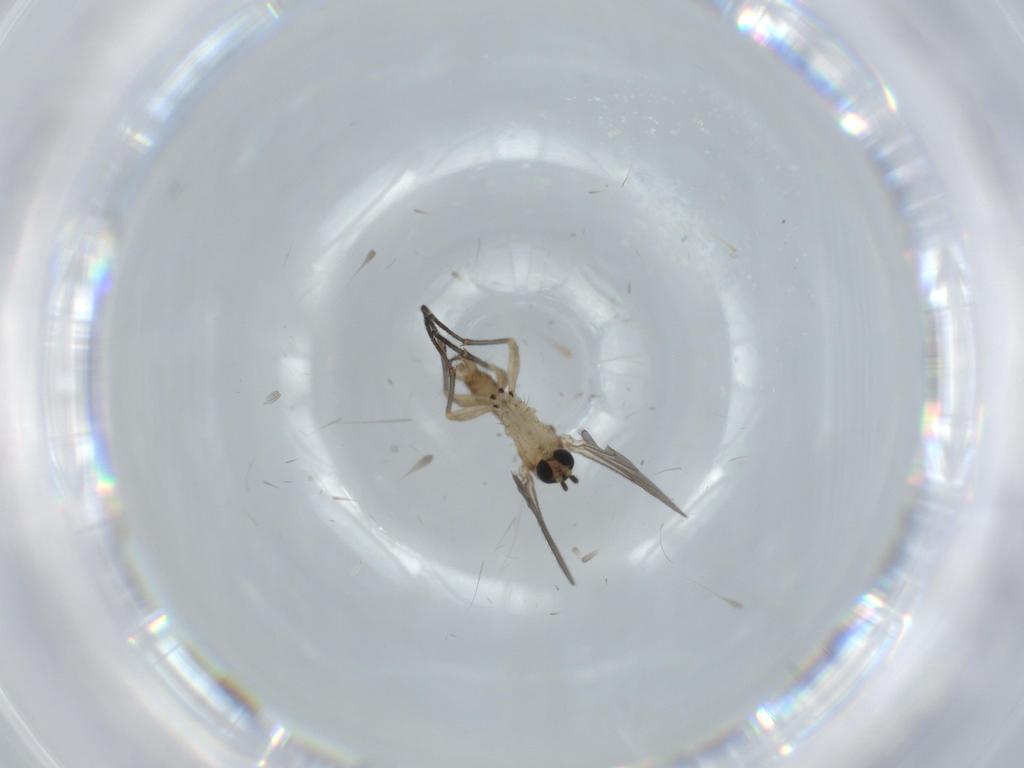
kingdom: Animalia
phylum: Arthropoda
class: Insecta
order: Diptera
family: Sciaridae
